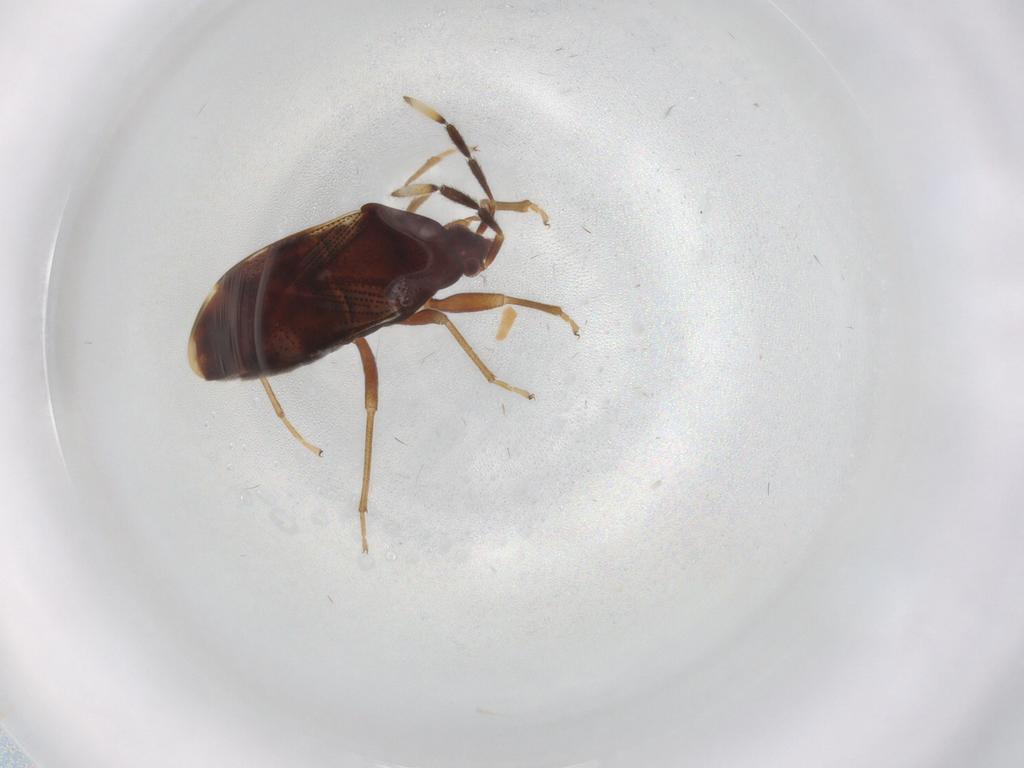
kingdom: Animalia
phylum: Arthropoda
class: Insecta
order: Hemiptera
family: Rhyparochromidae
